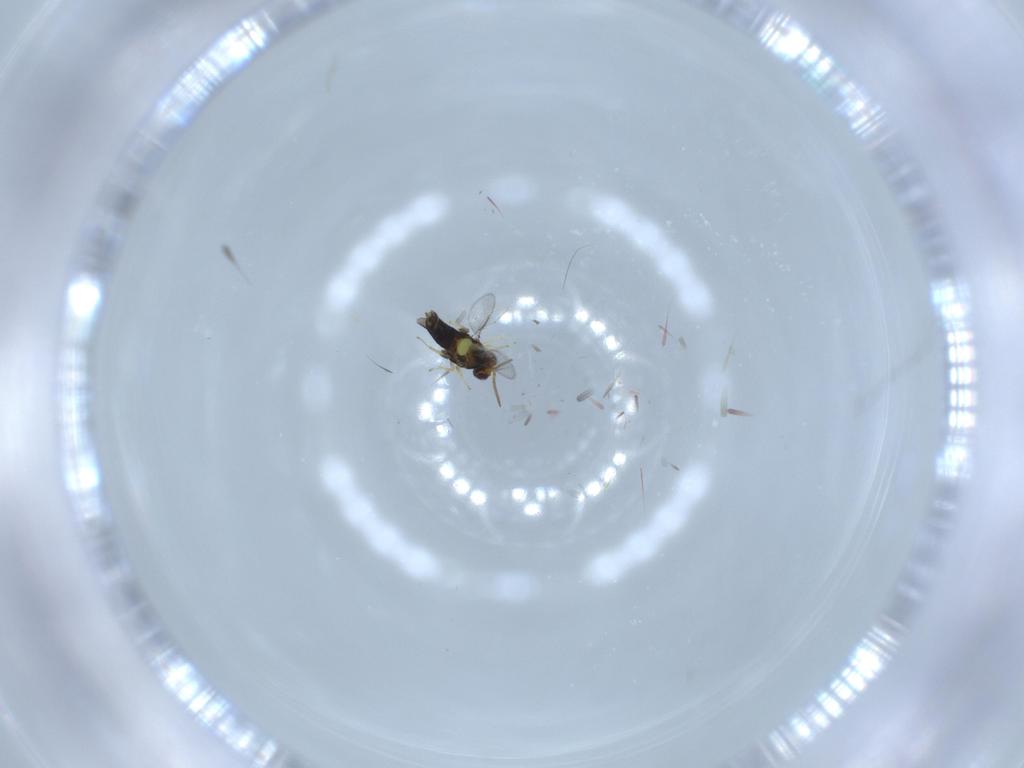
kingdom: Animalia
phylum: Arthropoda
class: Insecta
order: Hymenoptera
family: Aphelinidae
